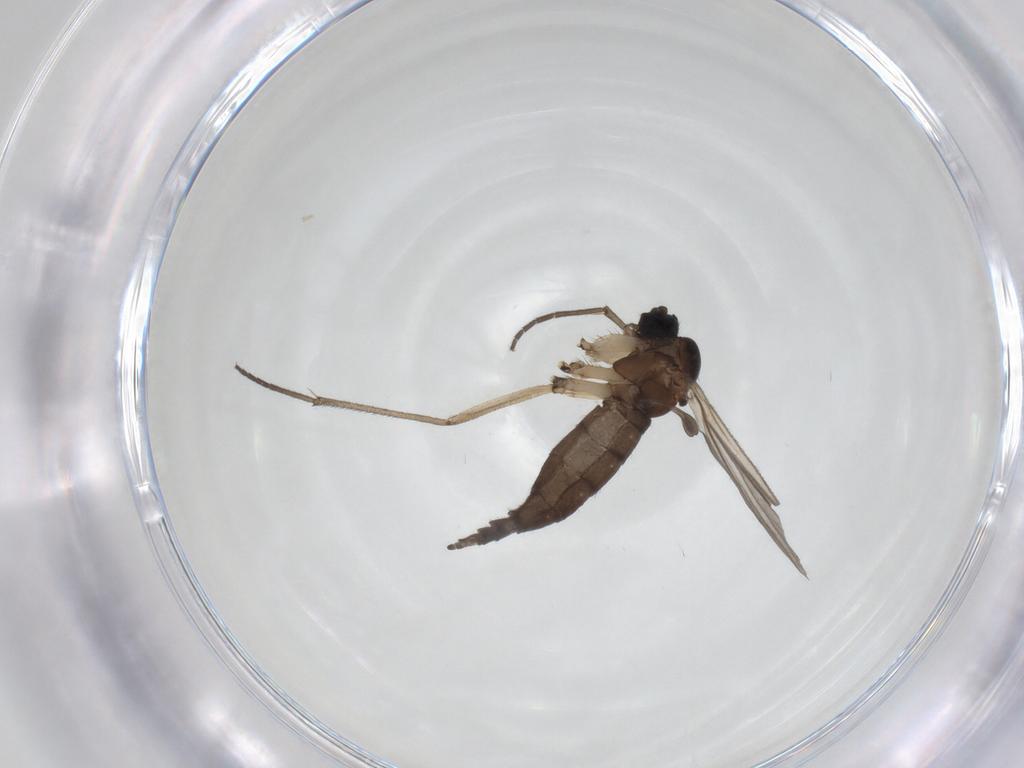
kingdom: Animalia
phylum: Arthropoda
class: Insecta
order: Diptera
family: Sciaridae
